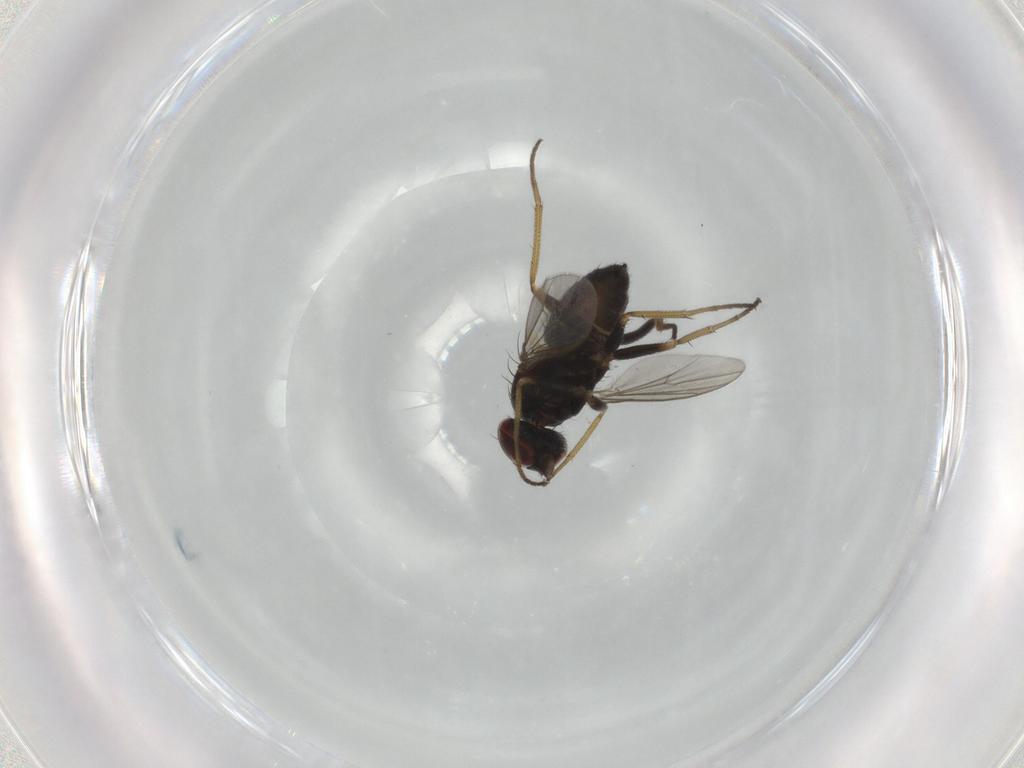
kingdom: Animalia
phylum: Arthropoda
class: Insecta
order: Diptera
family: Dolichopodidae
